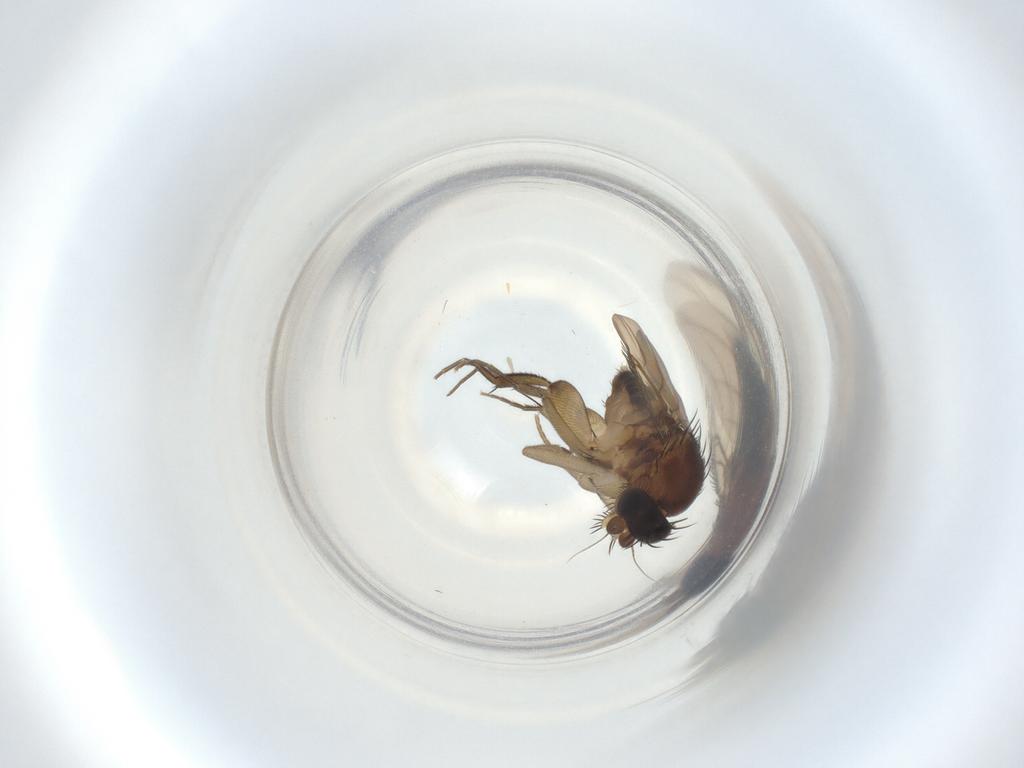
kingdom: Animalia
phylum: Arthropoda
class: Insecta
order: Diptera
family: Phoridae
